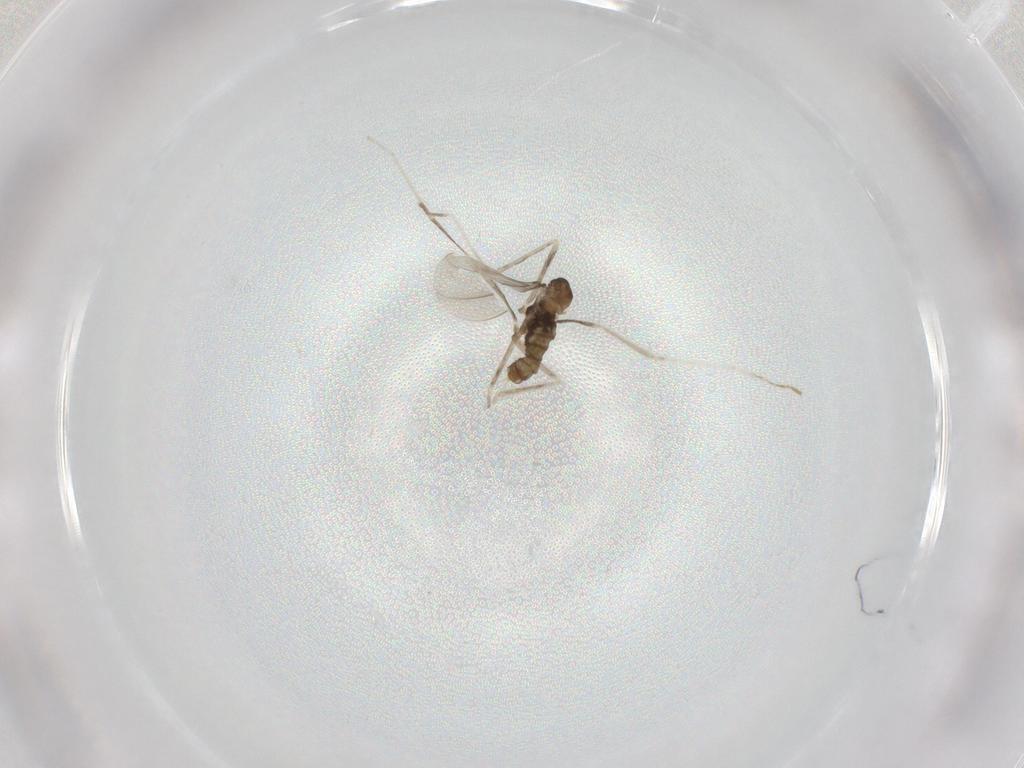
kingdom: Animalia
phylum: Arthropoda
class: Insecta
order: Diptera
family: Cecidomyiidae
